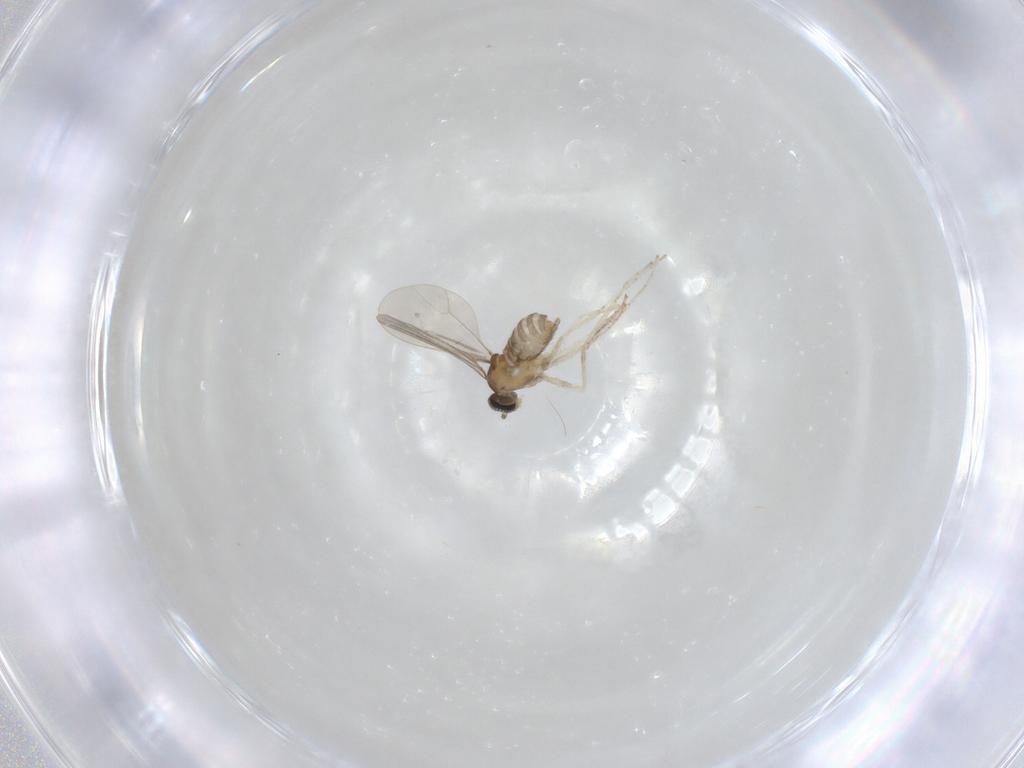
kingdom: Animalia
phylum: Arthropoda
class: Insecta
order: Diptera
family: Cecidomyiidae
